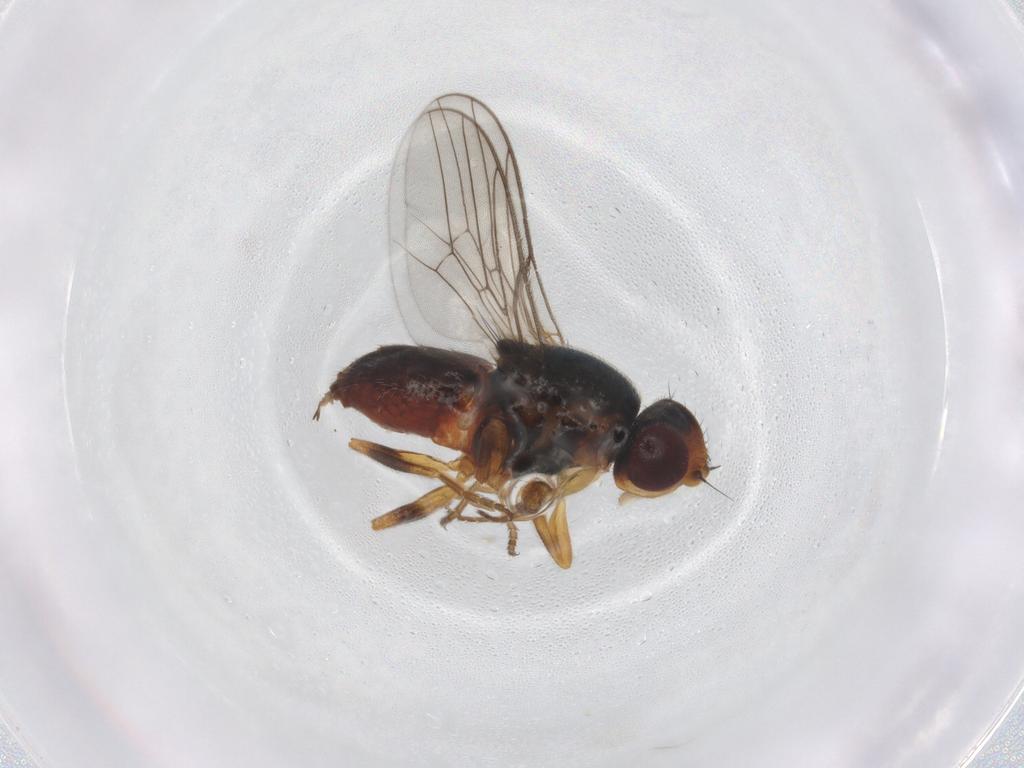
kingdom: Animalia
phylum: Arthropoda
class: Insecta
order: Diptera
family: Chloropidae
